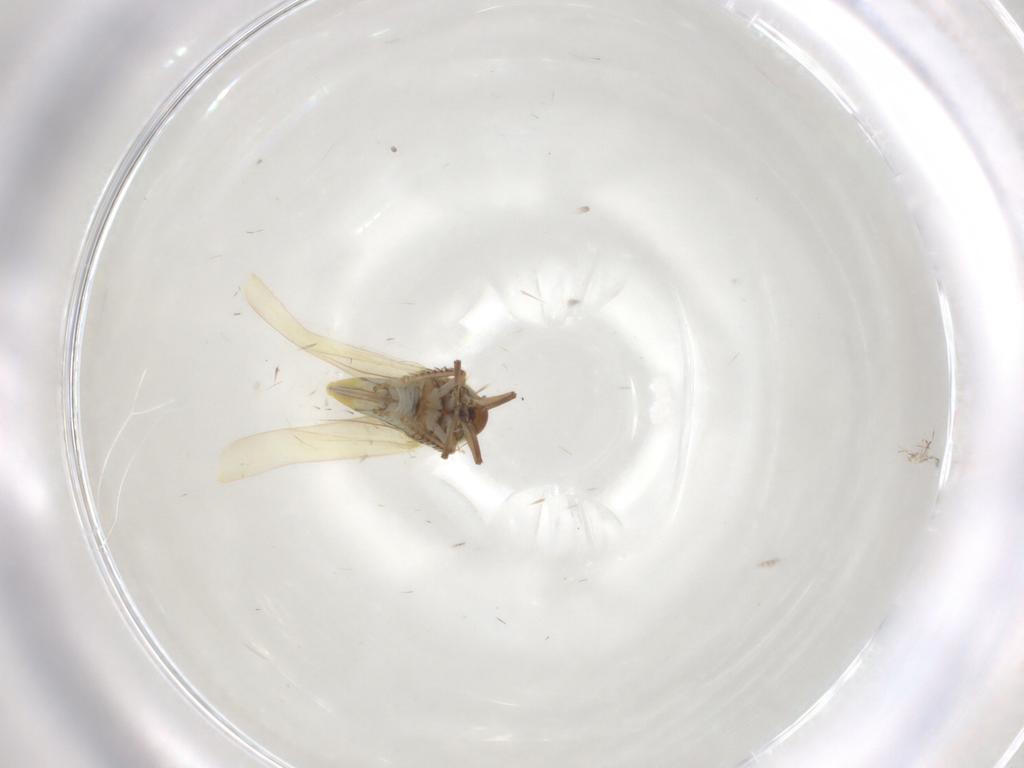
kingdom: Animalia
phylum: Arthropoda
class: Insecta
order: Hemiptera
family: Cicadellidae
